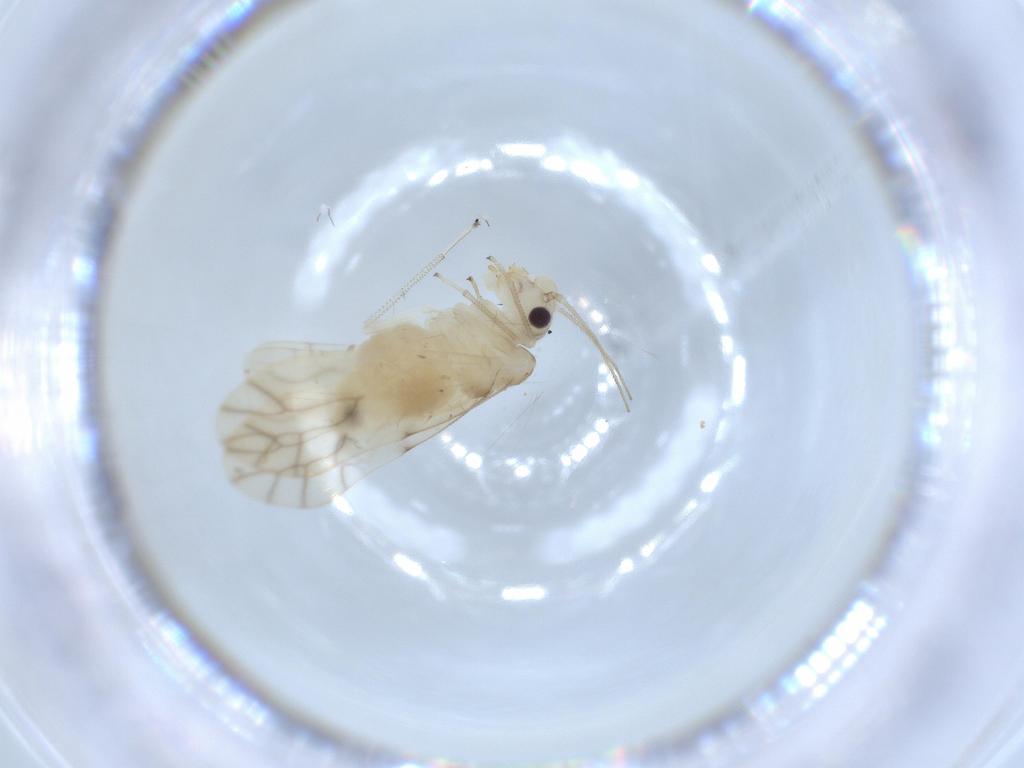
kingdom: Animalia
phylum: Arthropoda
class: Insecta
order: Psocodea
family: Caeciliusidae
